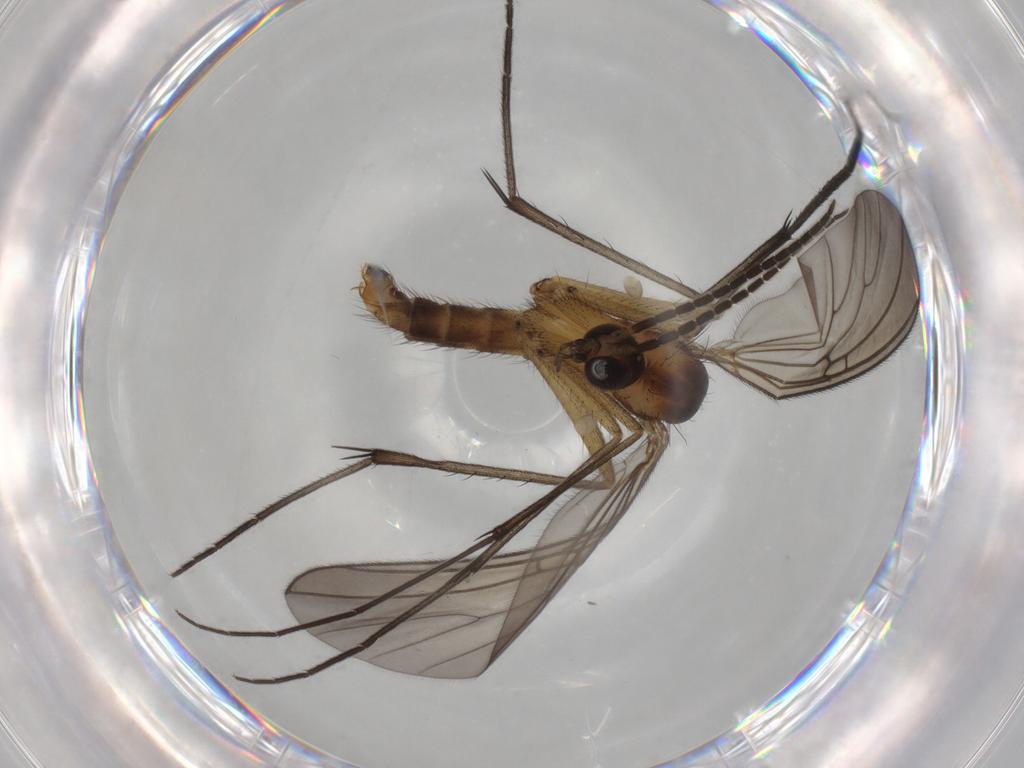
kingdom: Animalia
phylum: Arthropoda
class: Insecta
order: Diptera
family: Mycetophilidae
